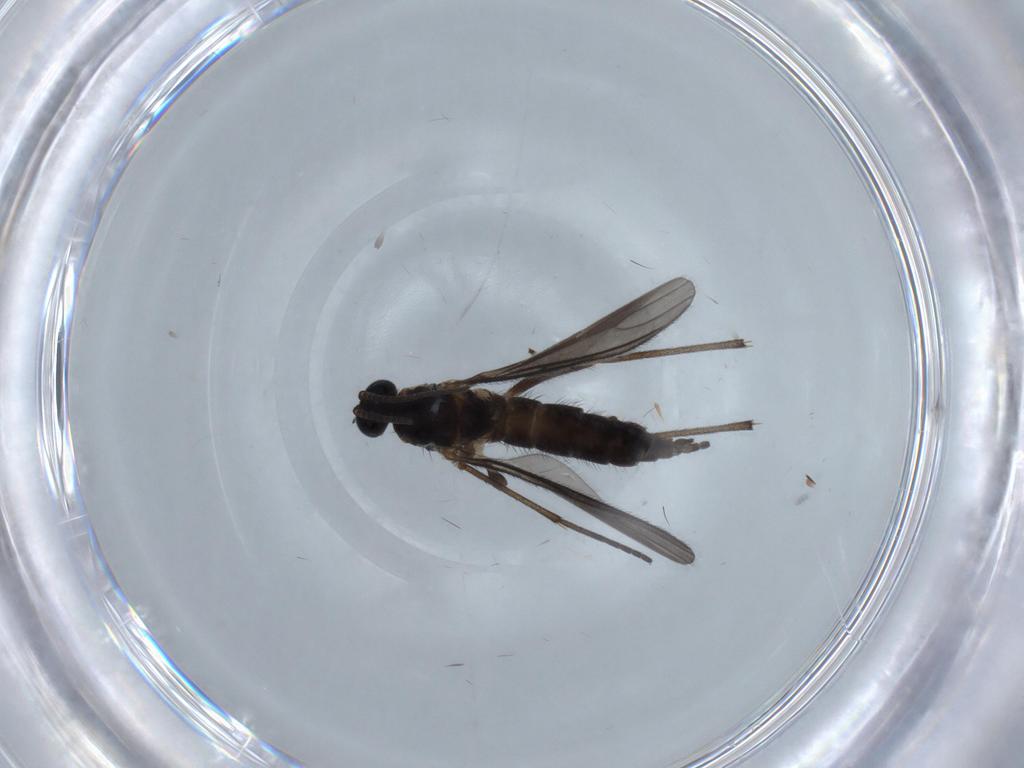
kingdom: Animalia
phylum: Arthropoda
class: Insecta
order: Diptera
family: Sciaridae
